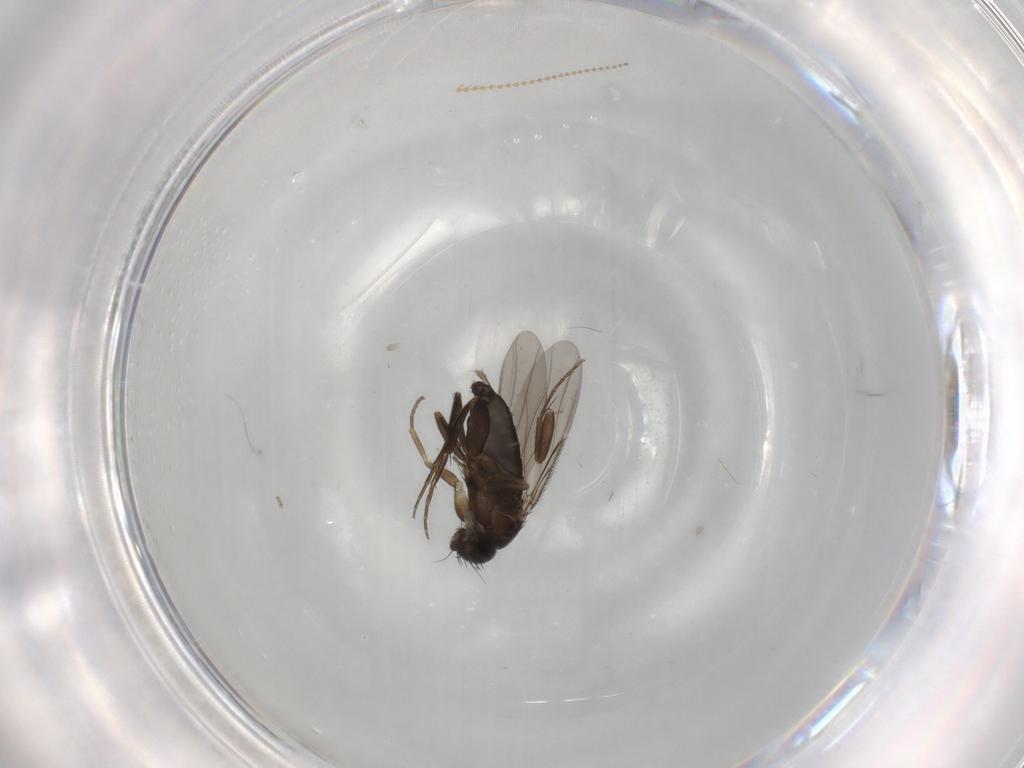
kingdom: Animalia
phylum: Arthropoda
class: Insecta
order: Diptera
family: Phoridae
